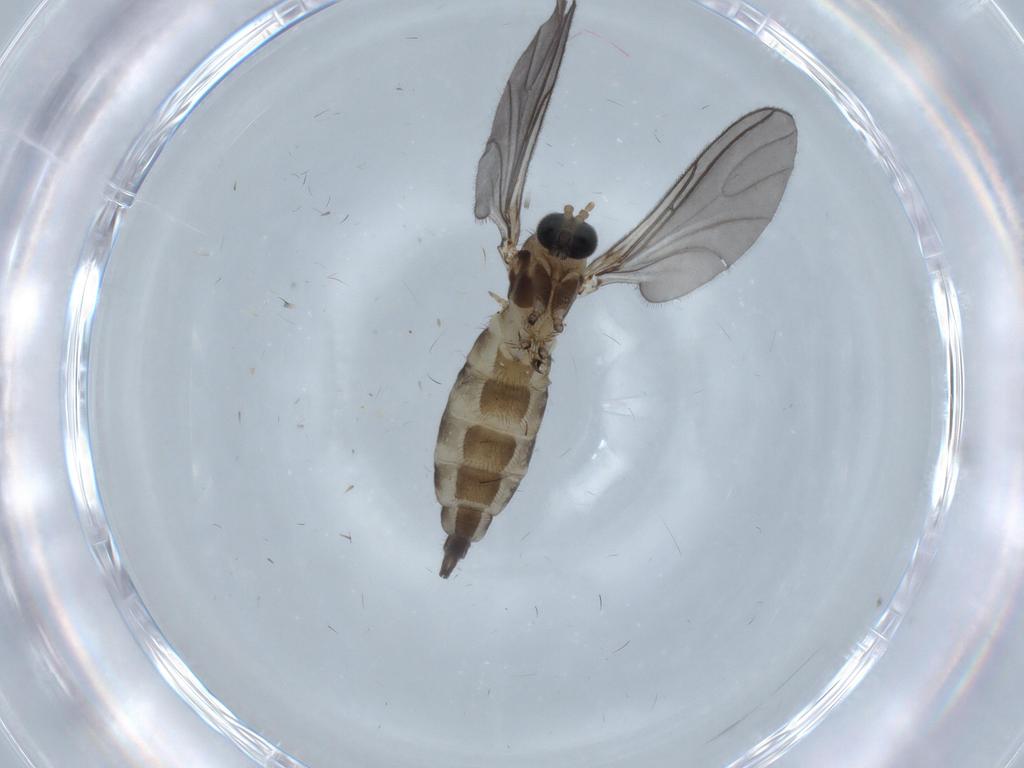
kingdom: Animalia
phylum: Arthropoda
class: Insecta
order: Diptera
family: Sciaridae
